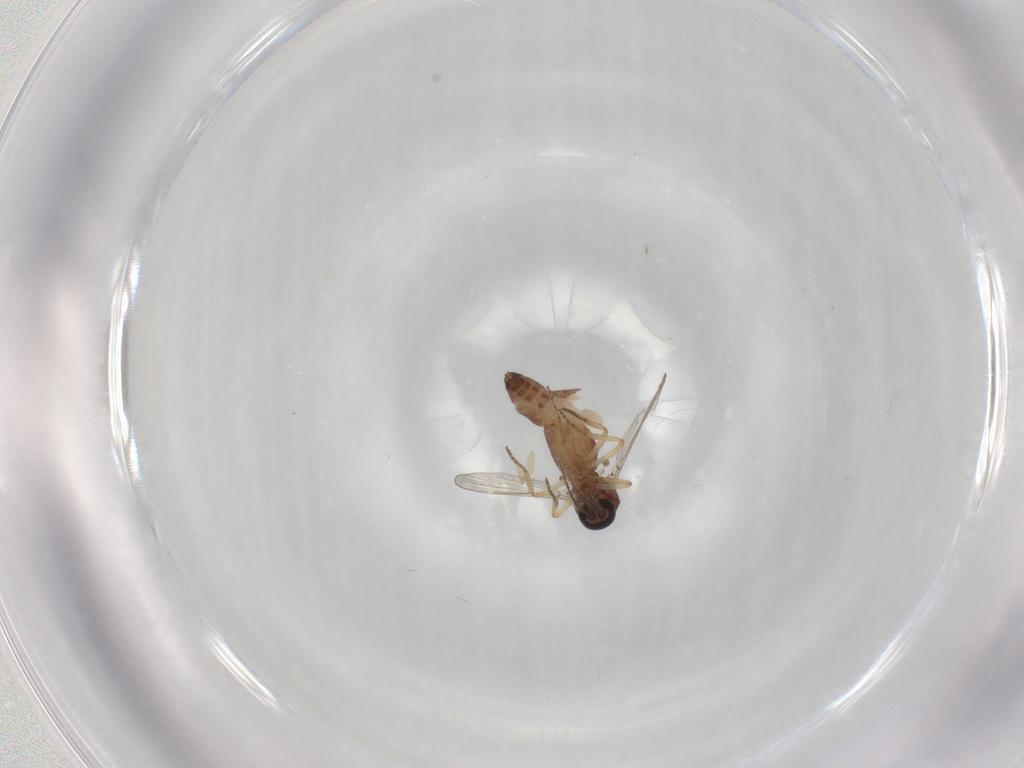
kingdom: Animalia
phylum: Arthropoda
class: Insecta
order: Diptera
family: Ceratopogonidae
